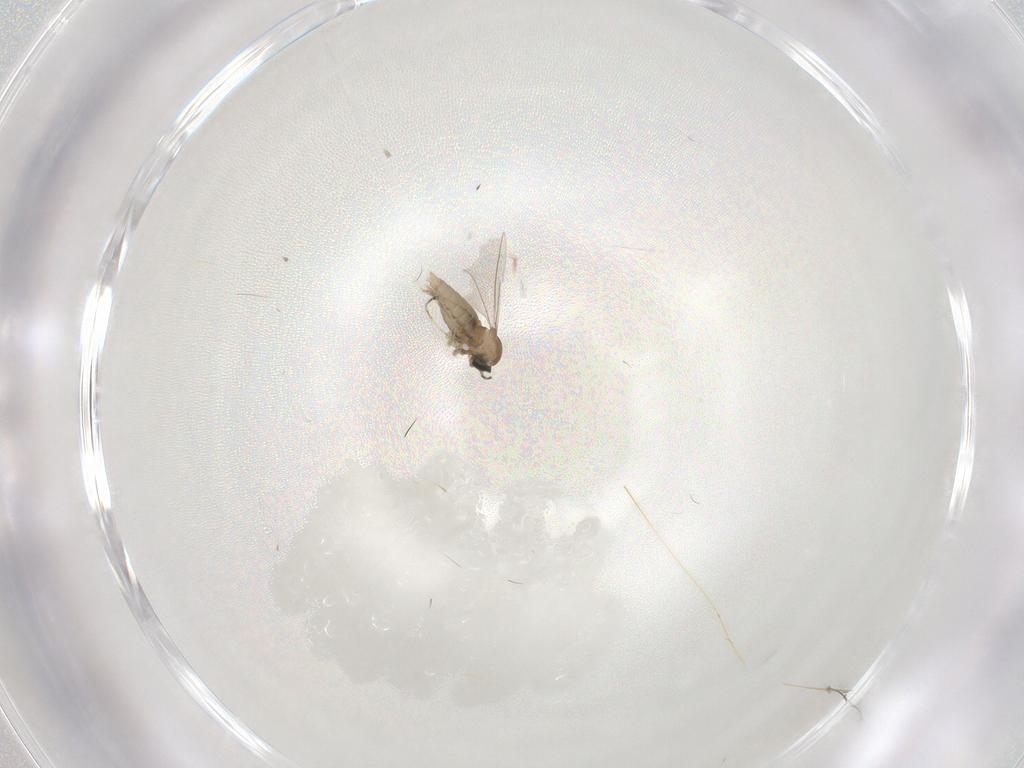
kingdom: Animalia
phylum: Arthropoda
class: Insecta
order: Diptera
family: Cecidomyiidae
